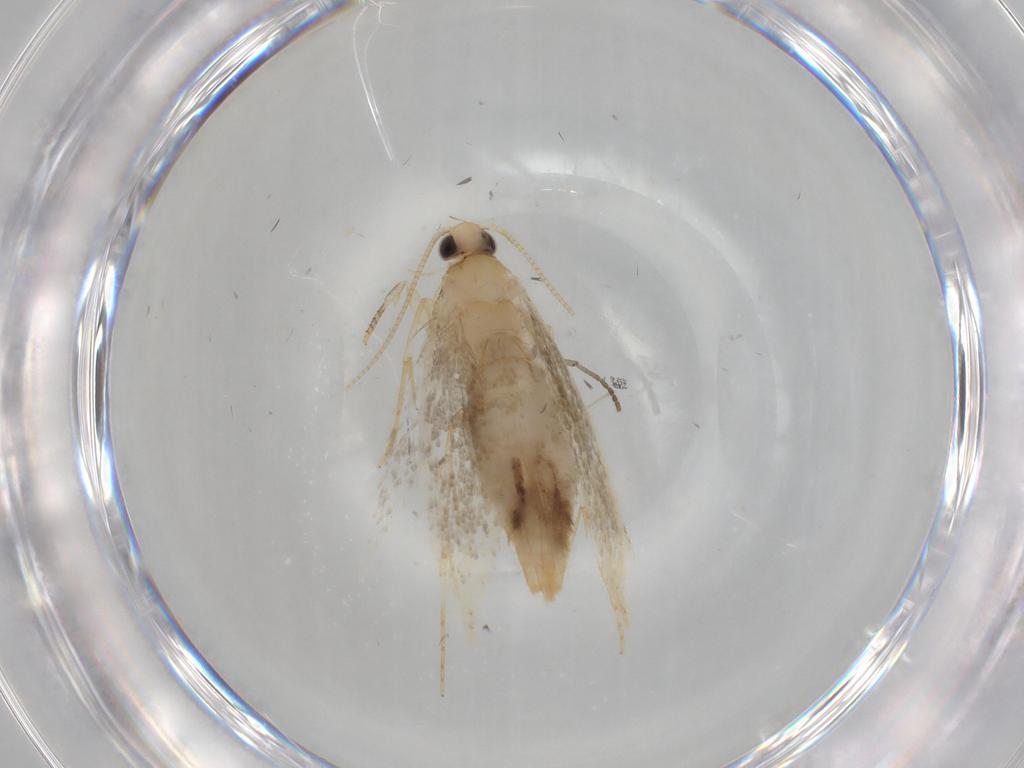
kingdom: Animalia
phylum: Arthropoda
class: Insecta
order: Lepidoptera
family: Tineidae
